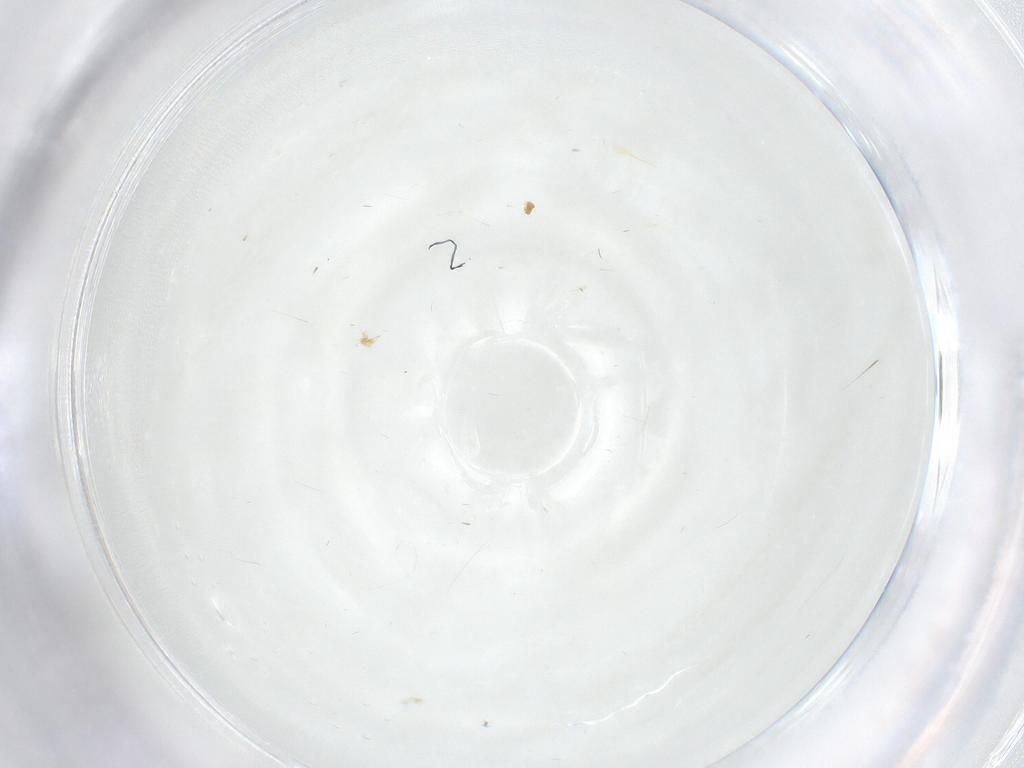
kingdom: Animalia
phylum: Arthropoda
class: Insecta
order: Diptera
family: Cecidomyiidae
